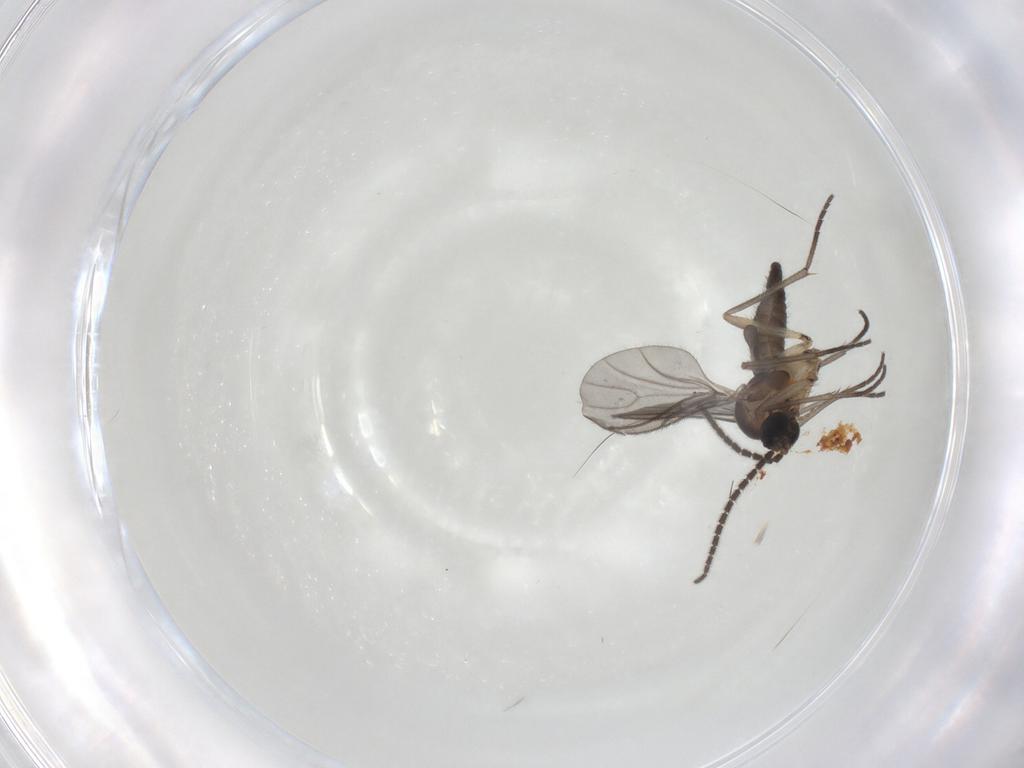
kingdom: Animalia
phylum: Arthropoda
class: Insecta
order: Diptera
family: Sciaridae
